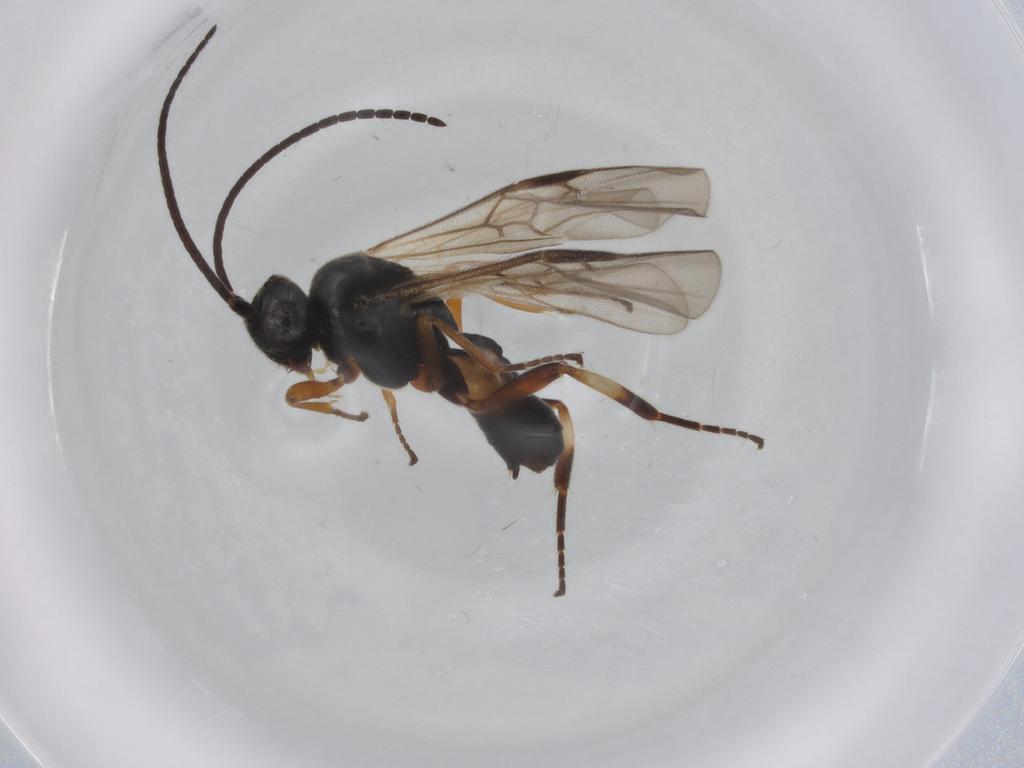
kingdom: Animalia
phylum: Arthropoda
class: Insecta
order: Hymenoptera
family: Braconidae
